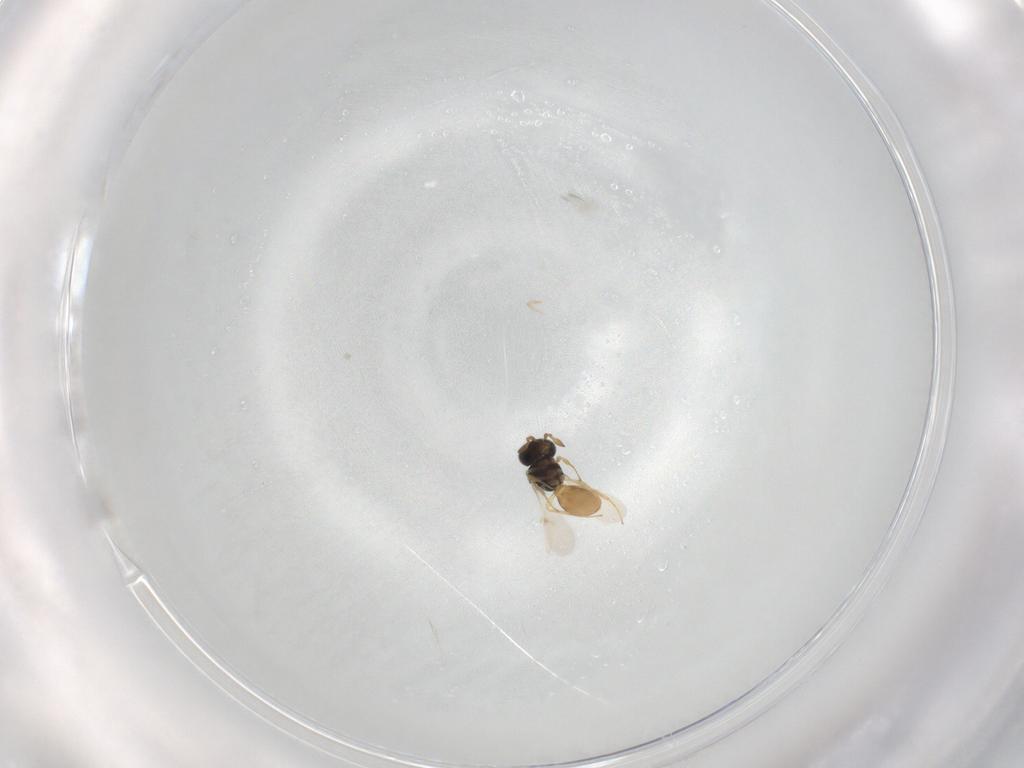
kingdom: Animalia
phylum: Arthropoda
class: Insecta
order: Hymenoptera
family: Scelionidae
